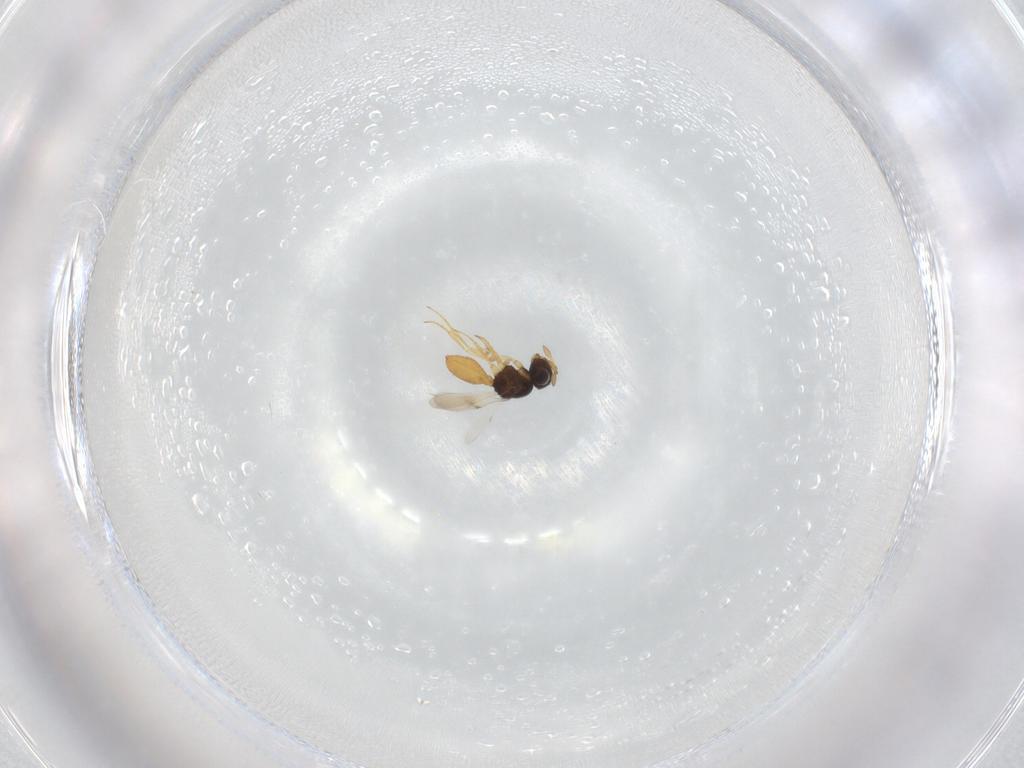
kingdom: Animalia
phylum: Arthropoda
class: Insecta
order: Hymenoptera
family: Scelionidae
